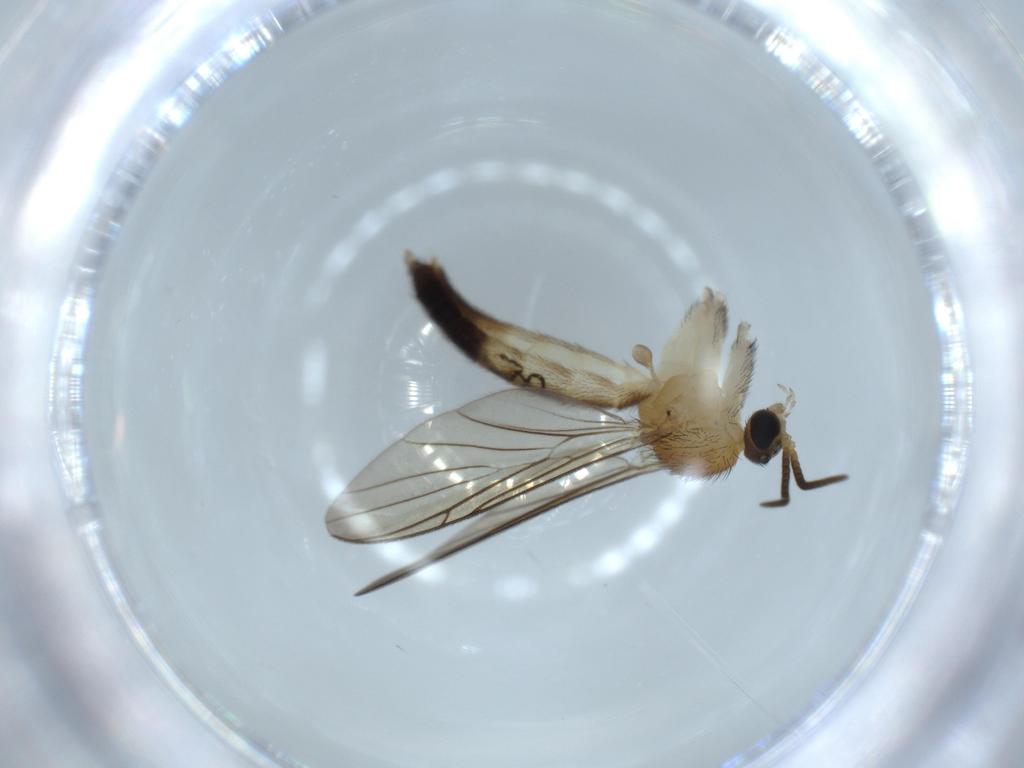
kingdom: Animalia
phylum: Arthropoda
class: Insecta
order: Diptera
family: Keroplatidae
